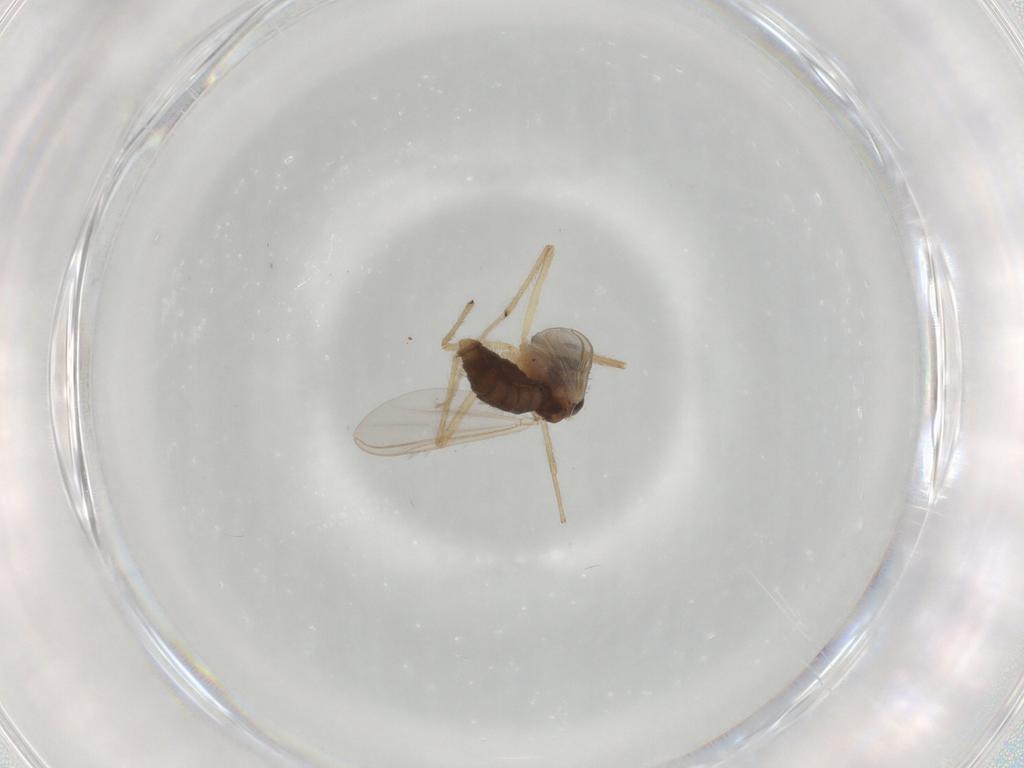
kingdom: Animalia
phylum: Arthropoda
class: Insecta
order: Diptera
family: Chironomidae
